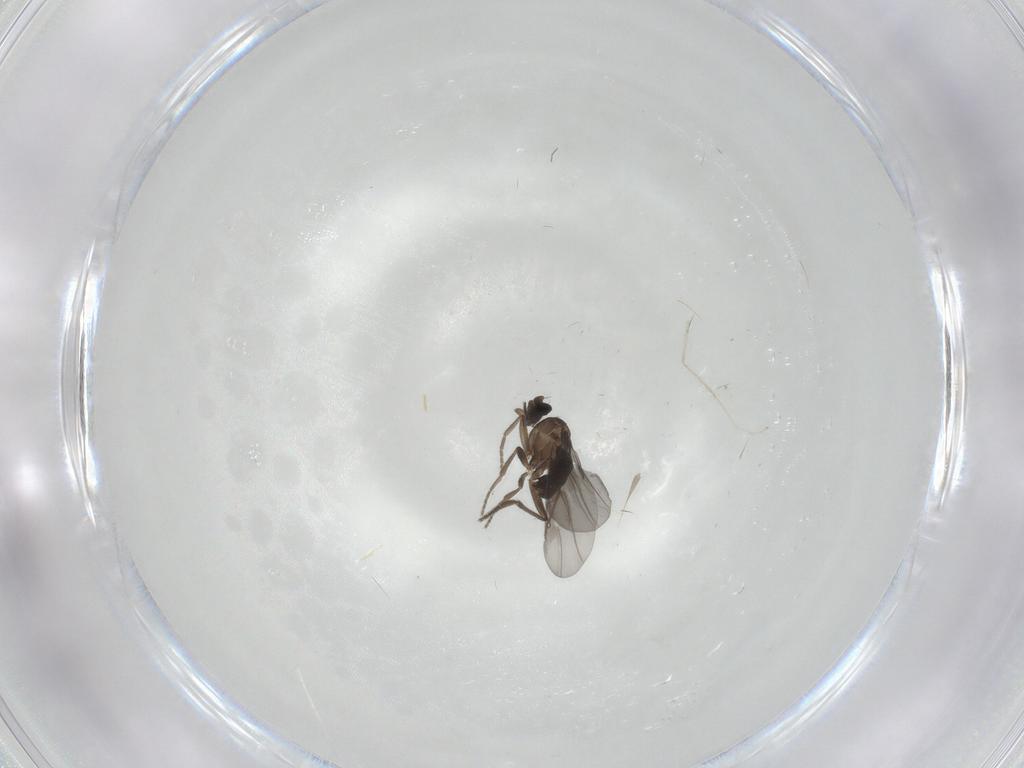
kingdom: Animalia
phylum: Arthropoda
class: Insecta
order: Diptera
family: Empididae
